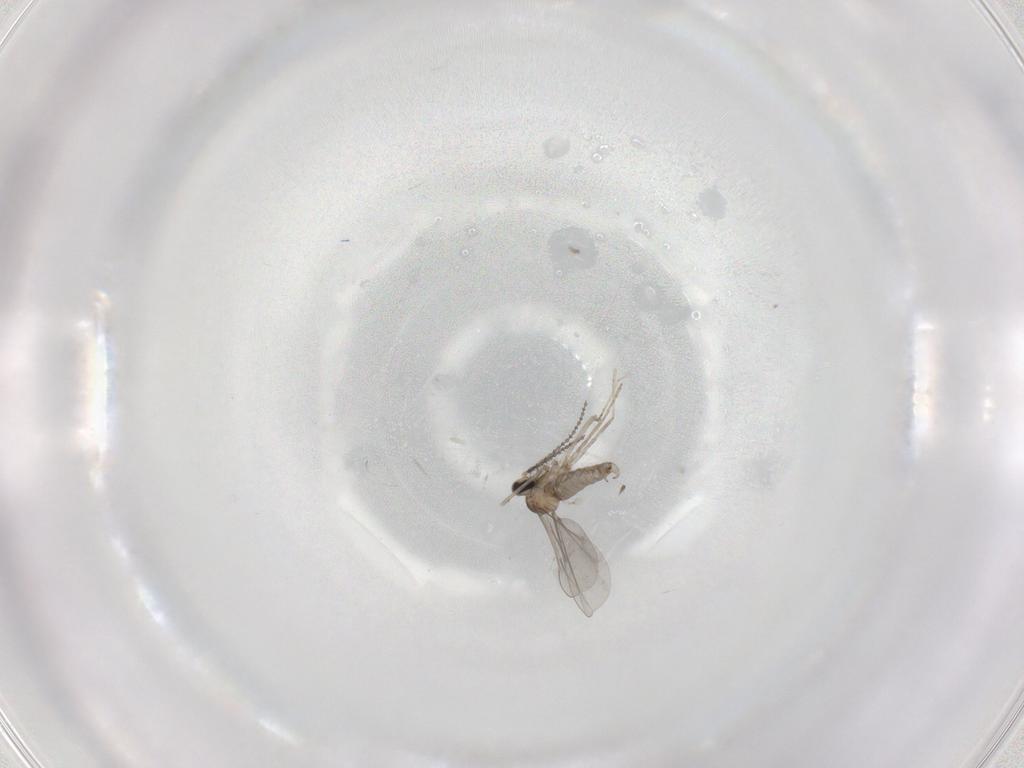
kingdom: Animalia
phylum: Arthropoda
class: Insecta
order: Diptera
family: Cecidomyiidae
